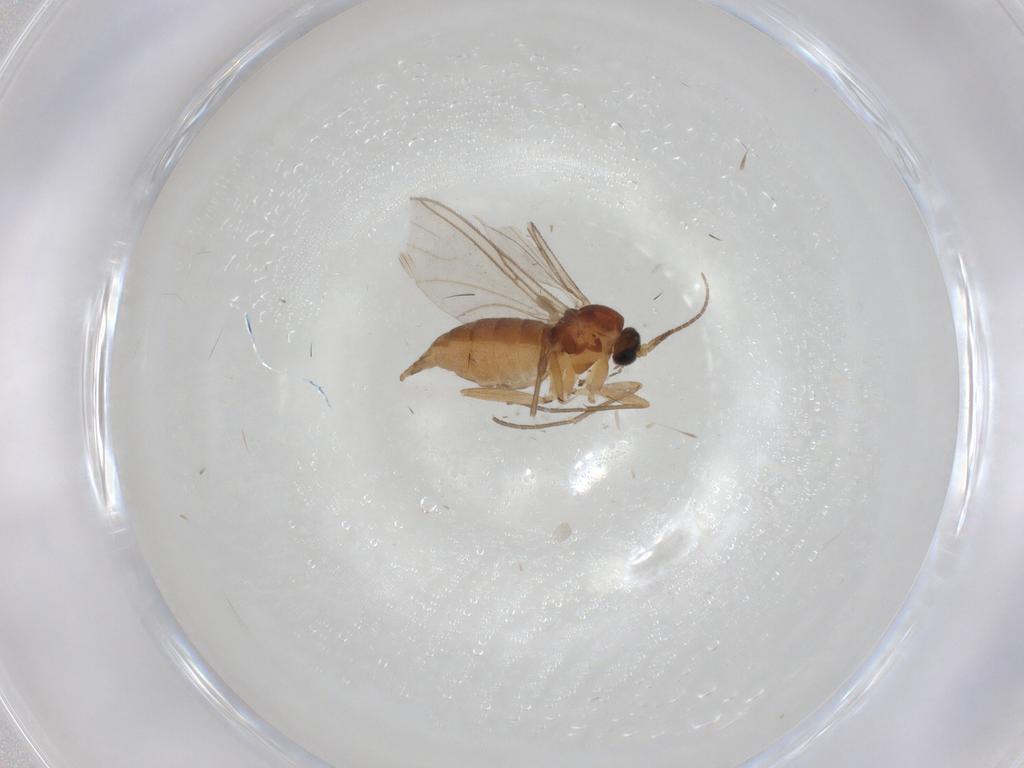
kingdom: Animalia
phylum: Arthropoda
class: Insecta
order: Diptera
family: Sciaridae
